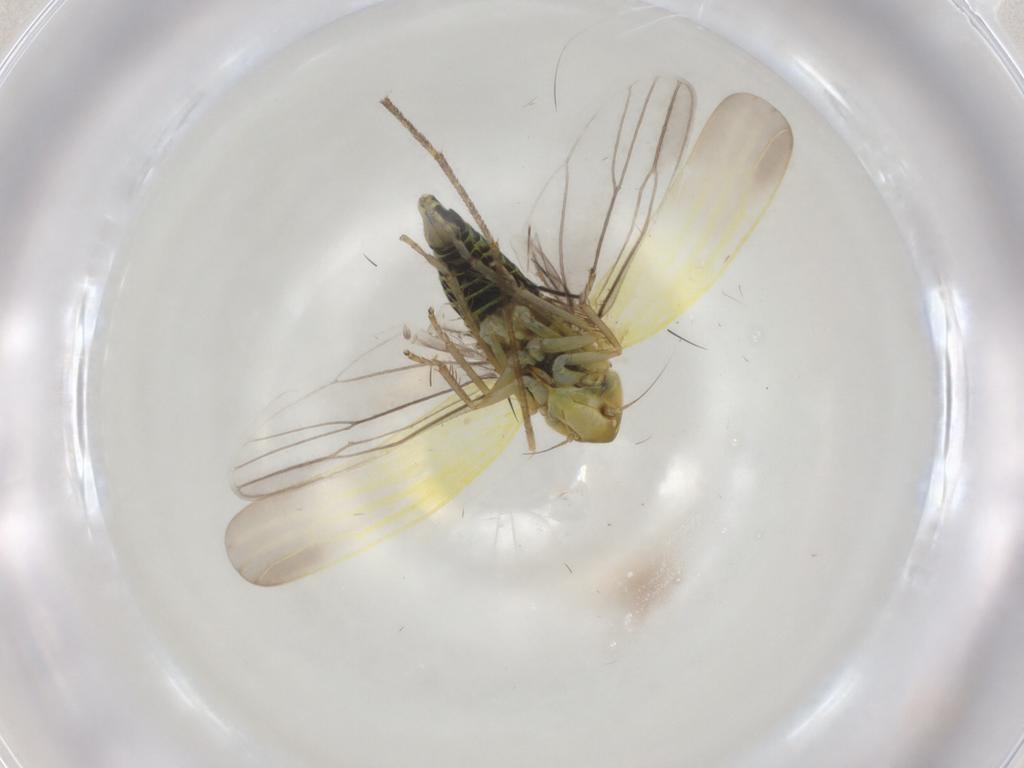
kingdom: Animalia
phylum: Arthropoda
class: Insecta
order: Hemiptera
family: Cicadellidae
